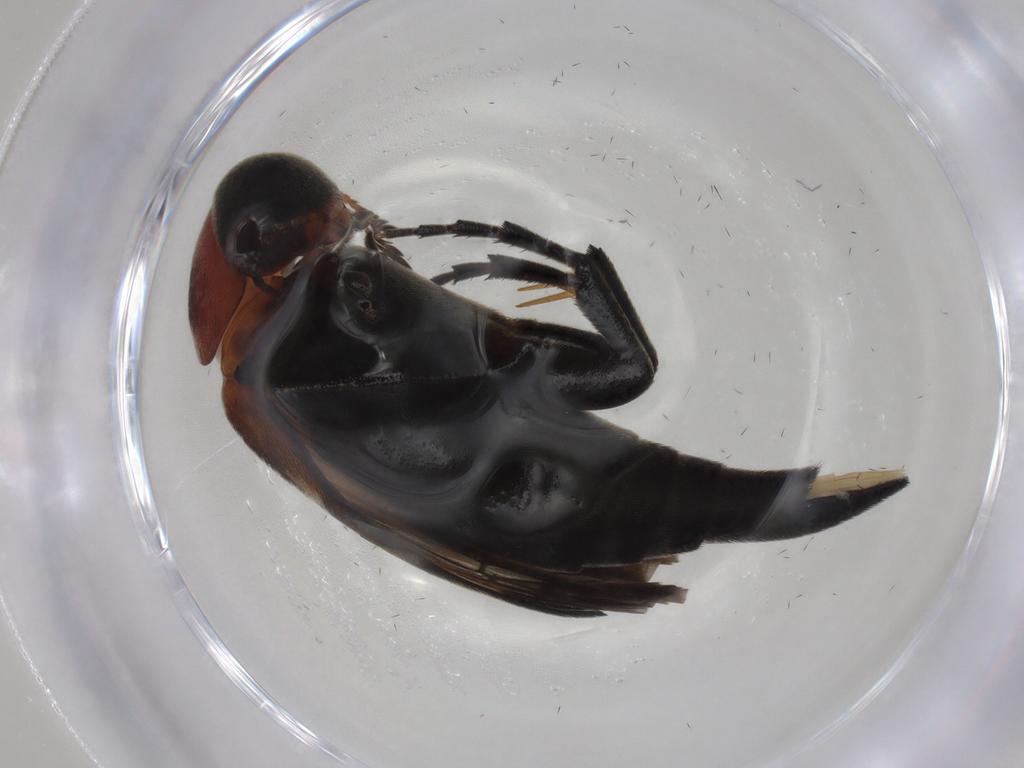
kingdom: Animalia
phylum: Arthropoda
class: Insecta
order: Coleoptera
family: Mordellidae
